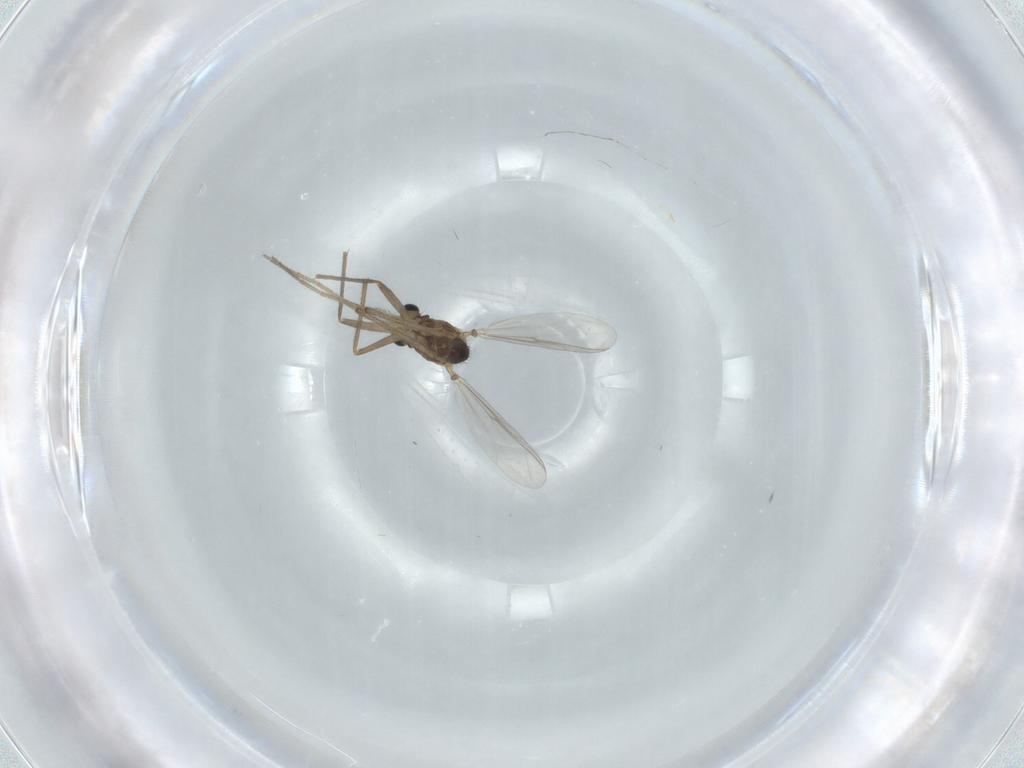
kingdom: Animalia
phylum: Arthropoda
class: Insecta
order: Diptera
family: Chironomidae
